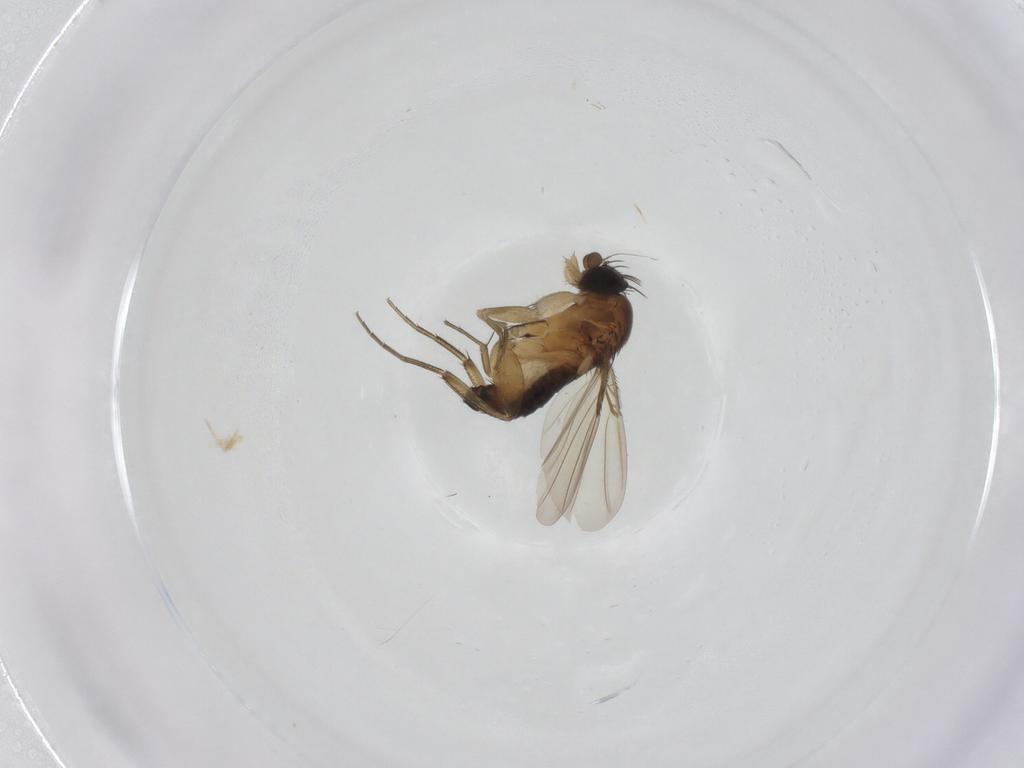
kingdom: Animalia
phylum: Arthropoda
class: Insecta
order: Diptera
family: Phoridae
